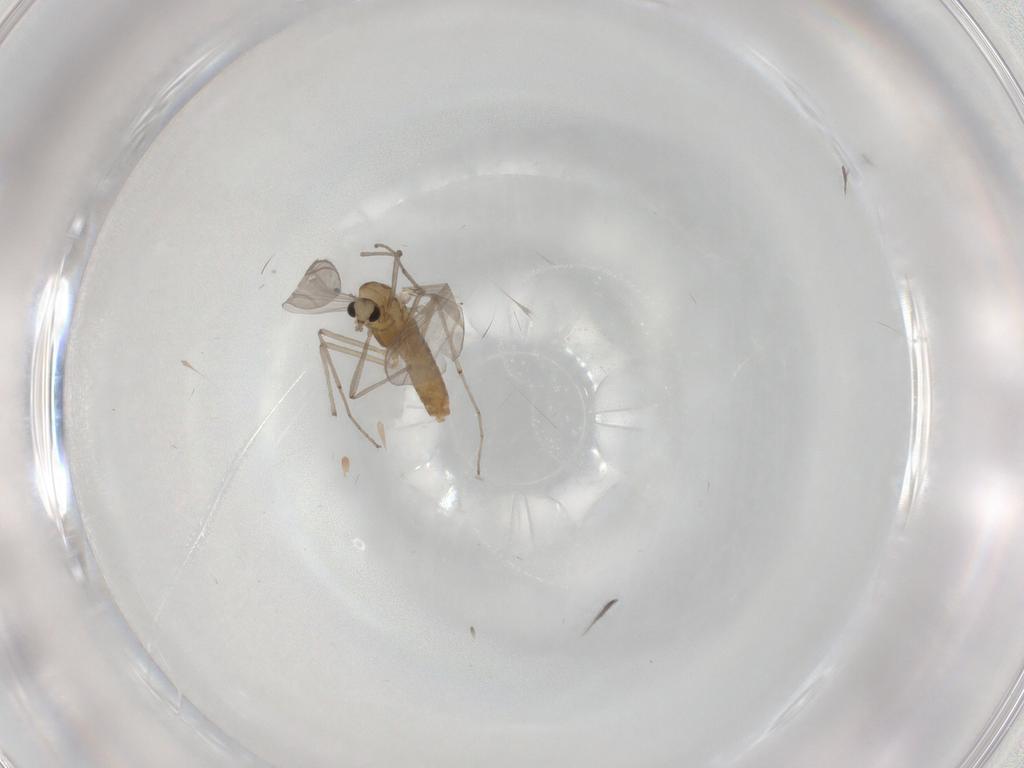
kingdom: Animalia
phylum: Arthropoda
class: Insecta
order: Diptera
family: Chironomidae
